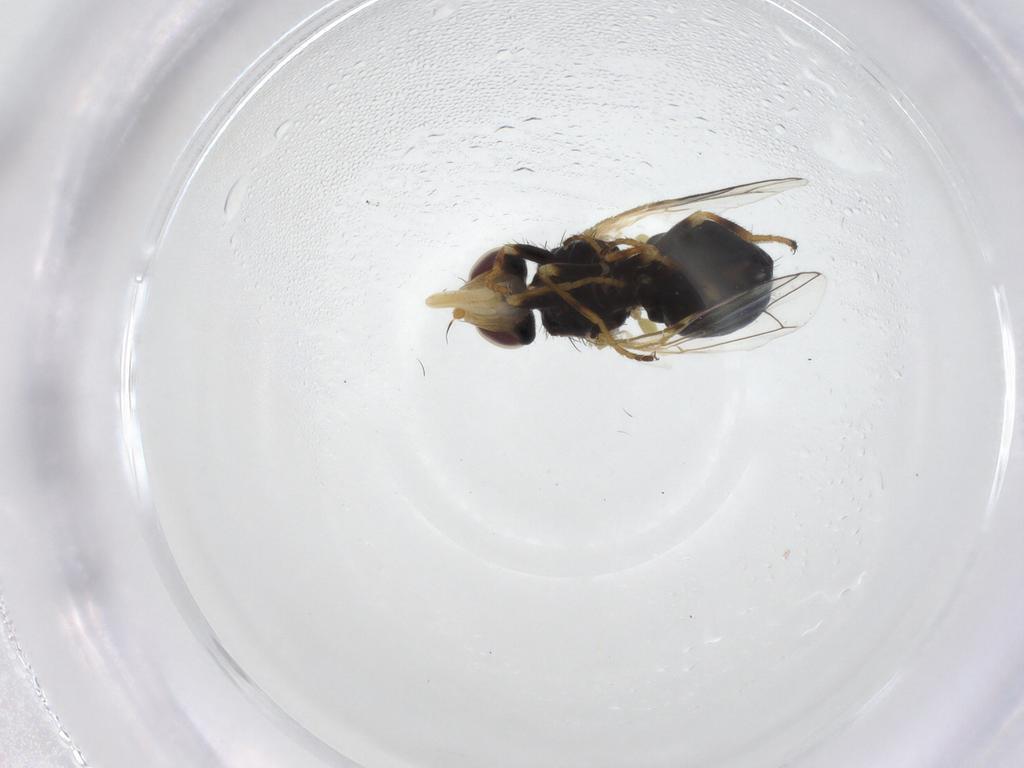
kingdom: Animalia
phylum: Arthropoda
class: Insecta
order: Diptera
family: Tephritidae
